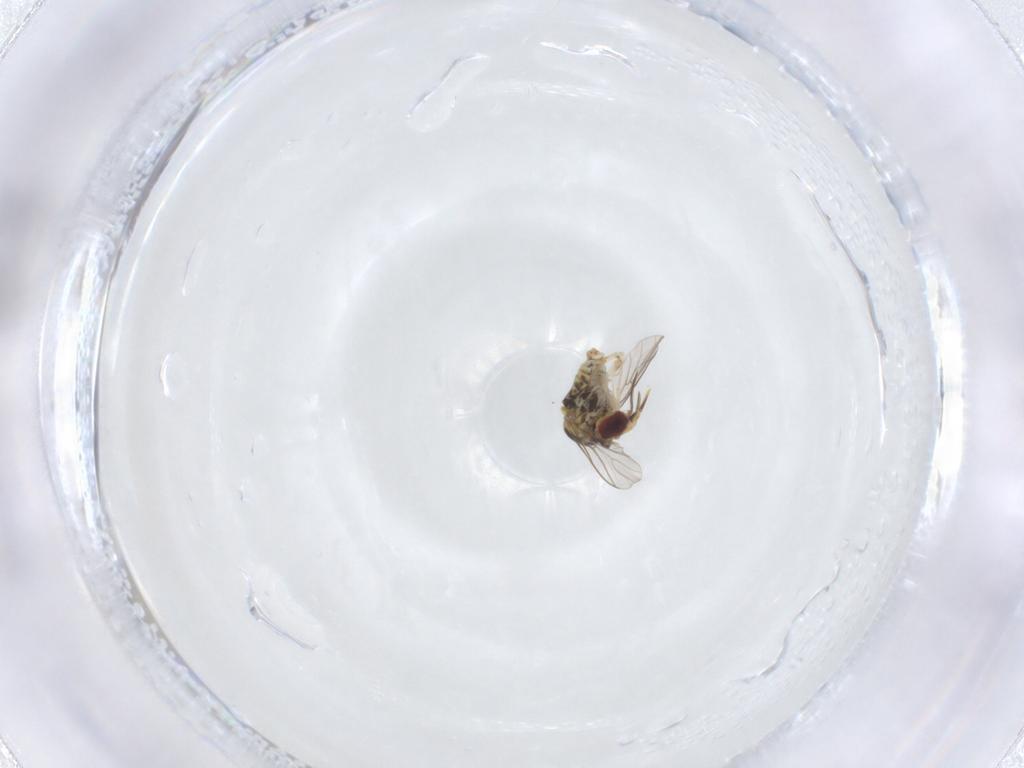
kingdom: Animalia
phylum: Arthropoda
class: Insecta
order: Diptera
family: Bombyliidae
